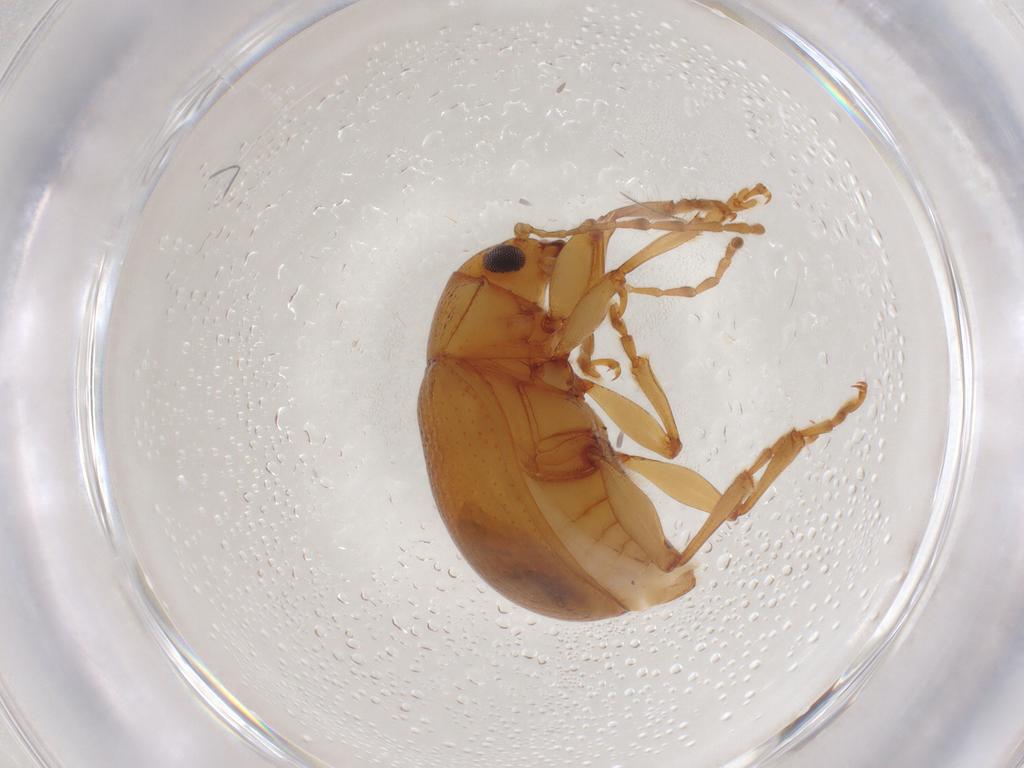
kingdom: Animalia
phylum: Arthropoda
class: Insecta
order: Coleoptera
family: Chrysomelidae
